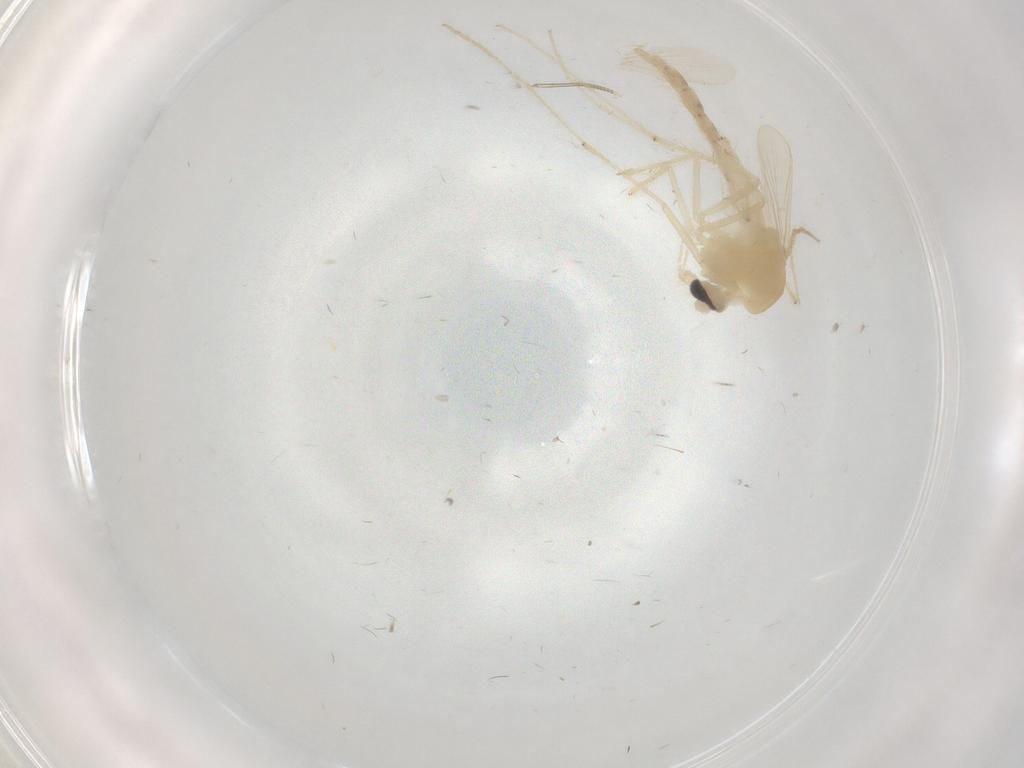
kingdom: Animalia
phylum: Arthropoda
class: Insecta
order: Diptera
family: Chironomidae
